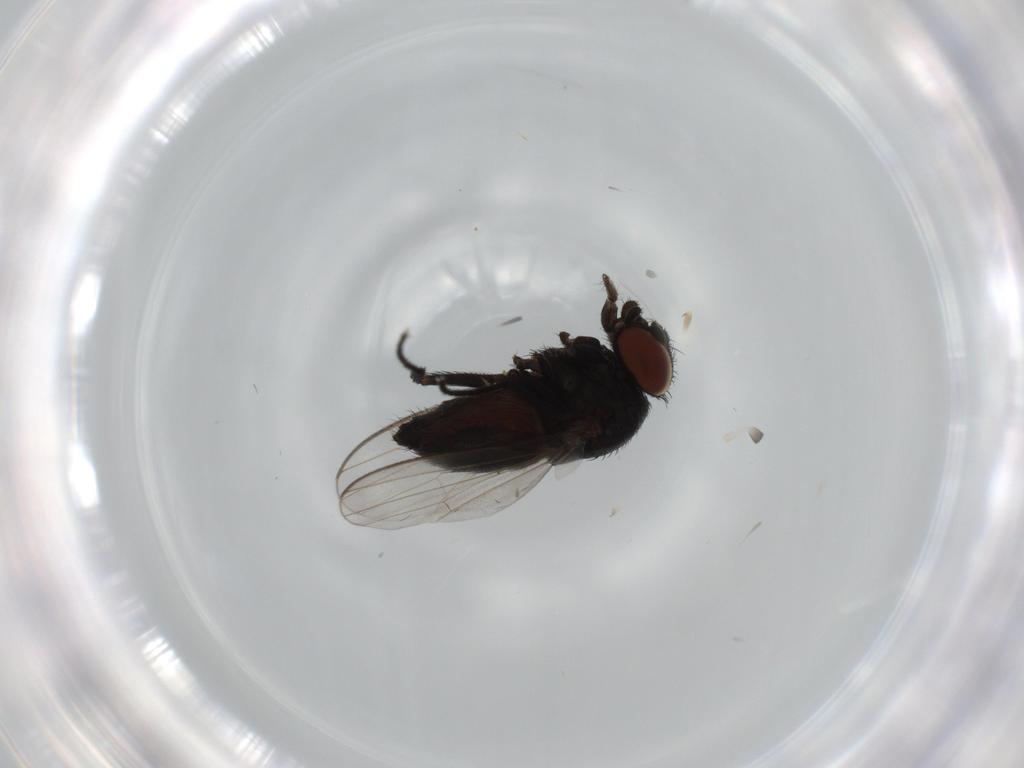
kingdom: Animalia
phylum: Arthropoda
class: Insecta
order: Diptera
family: Milichiidae
